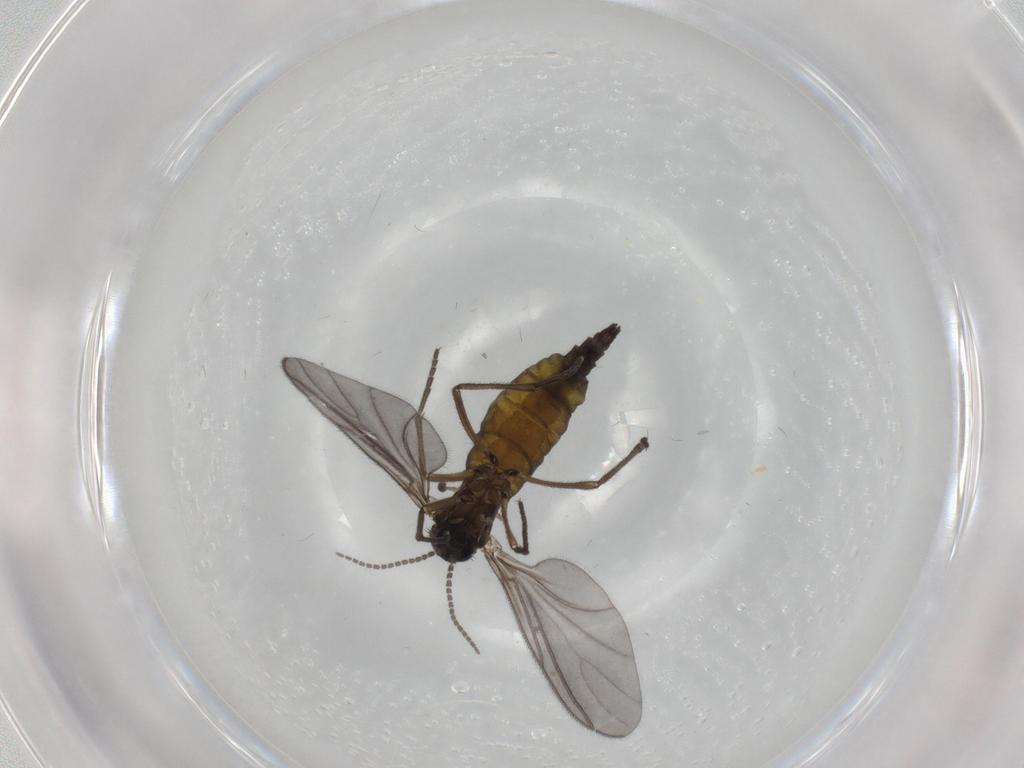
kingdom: Animalia
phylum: Arthropoda
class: Insecta
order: Diptera
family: Sciaridae
